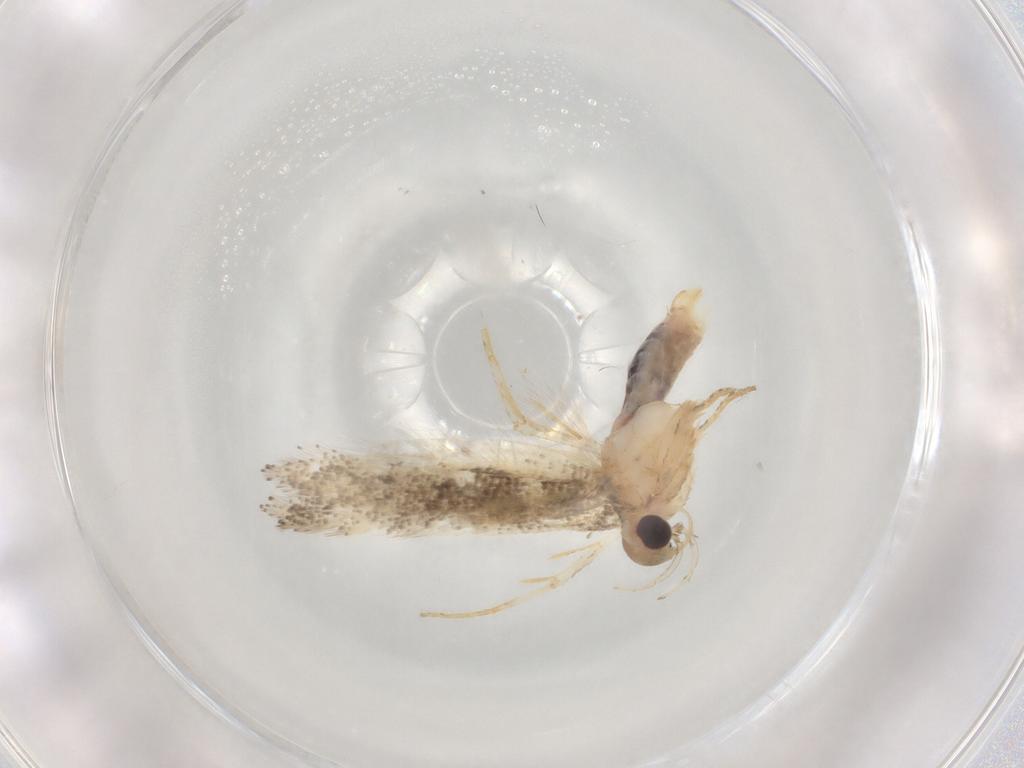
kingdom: Animalia
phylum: Arthropoda
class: Insecta
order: Lepidoptera
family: Gelechiidae
